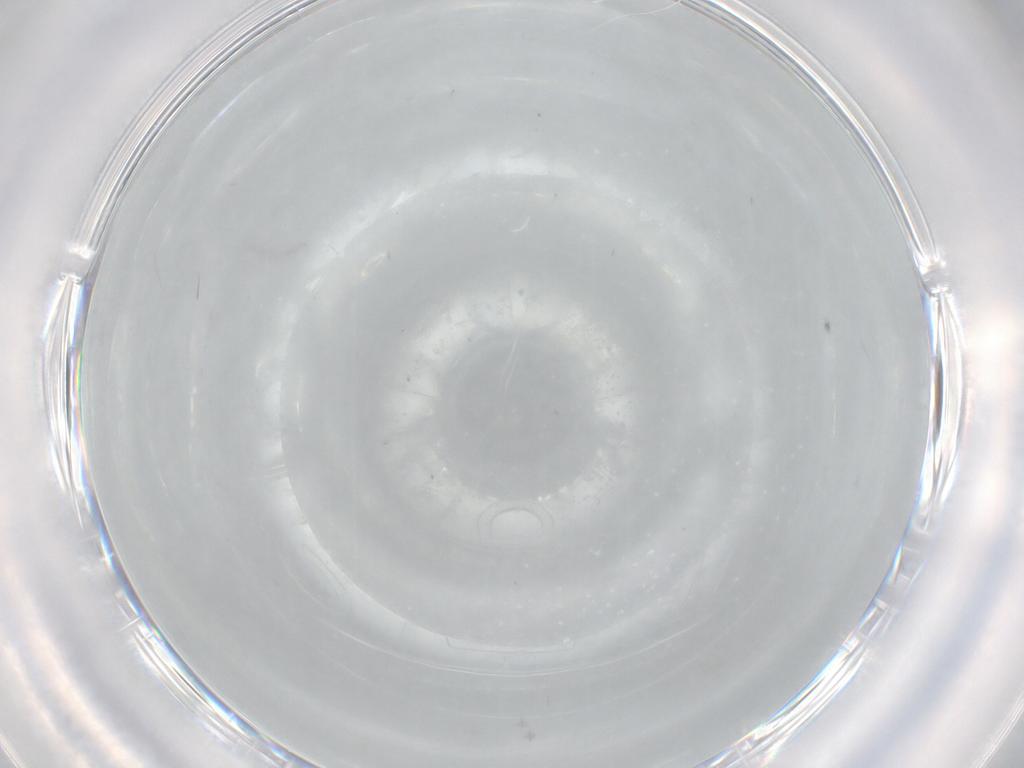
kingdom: Animalia
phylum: Arthropoda
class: Insecta
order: Diptera
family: Asilidae
